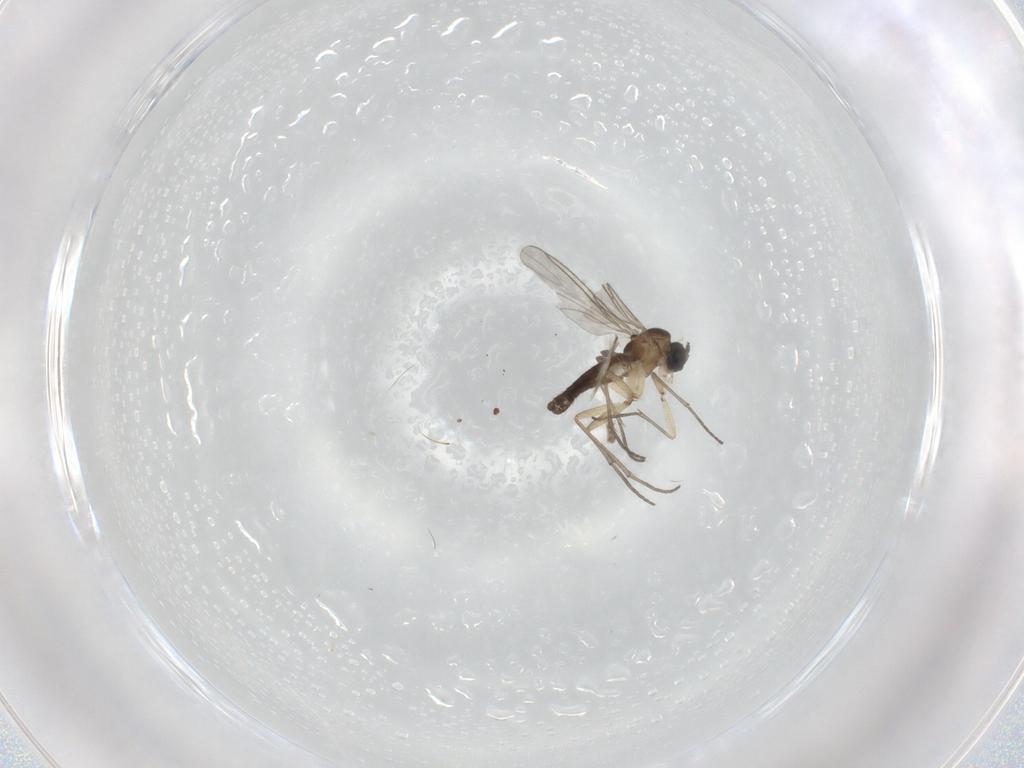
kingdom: Animalia
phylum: Arthropoda
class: Insecta
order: Diptera
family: Sciaridae
